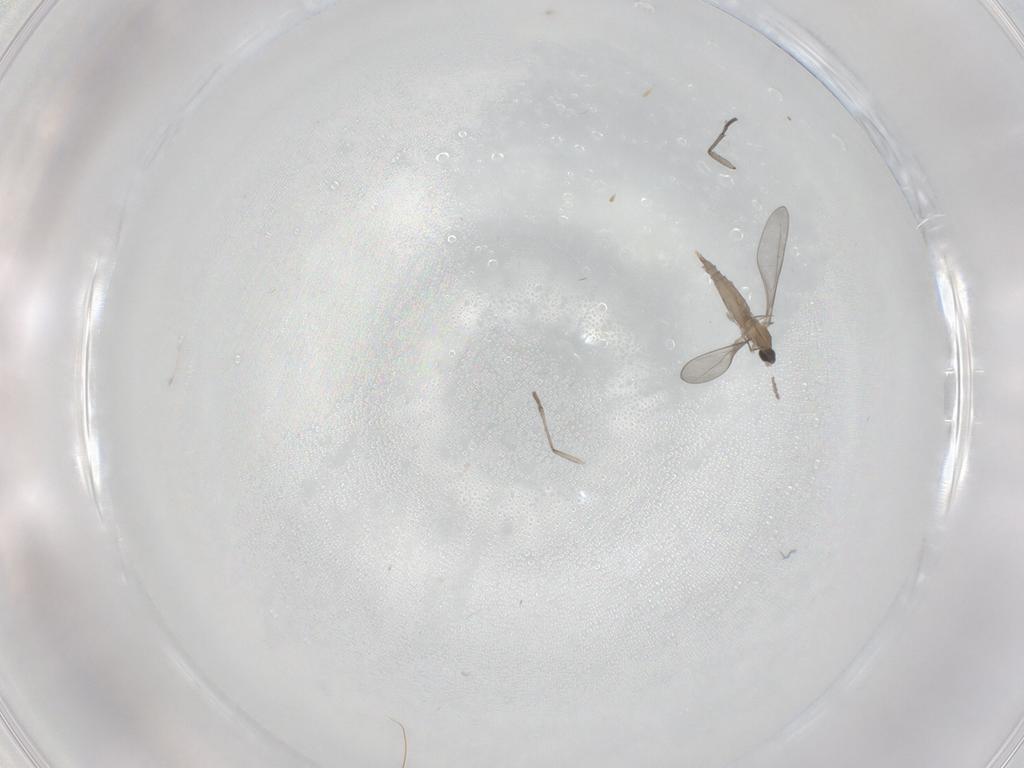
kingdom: Animalia
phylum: Arthropoda
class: Insecta
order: Diptera
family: Psychodidae
